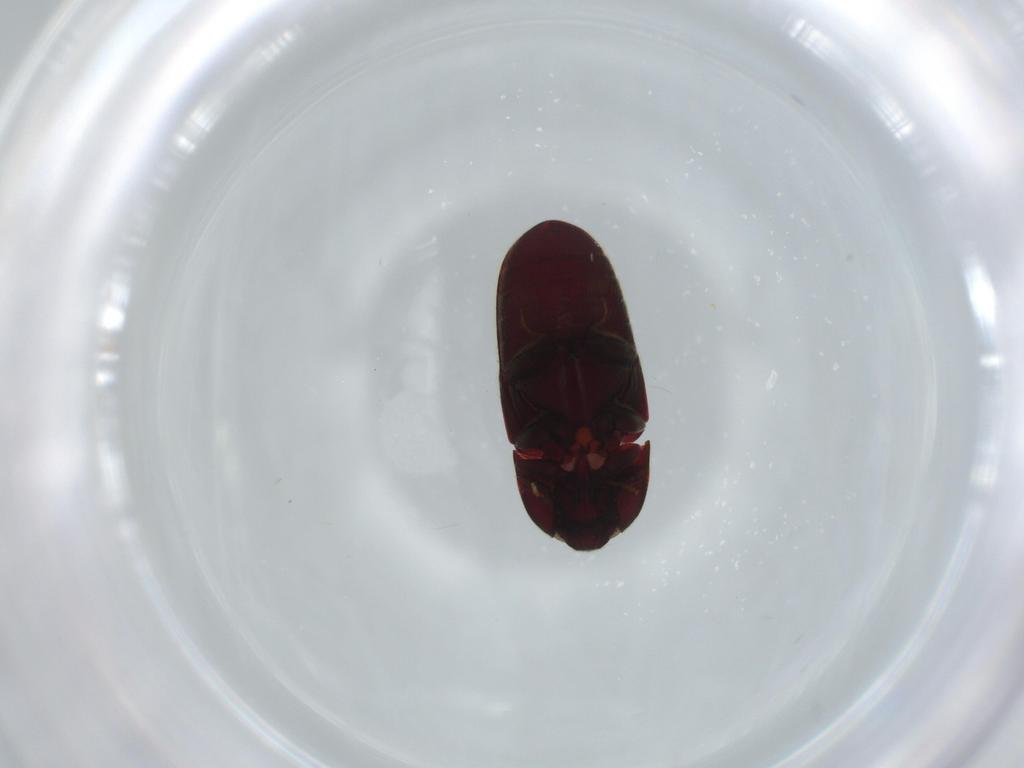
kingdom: Animalia
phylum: Arthropoda
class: Insecta
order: Coleoptera
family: Throscidae
